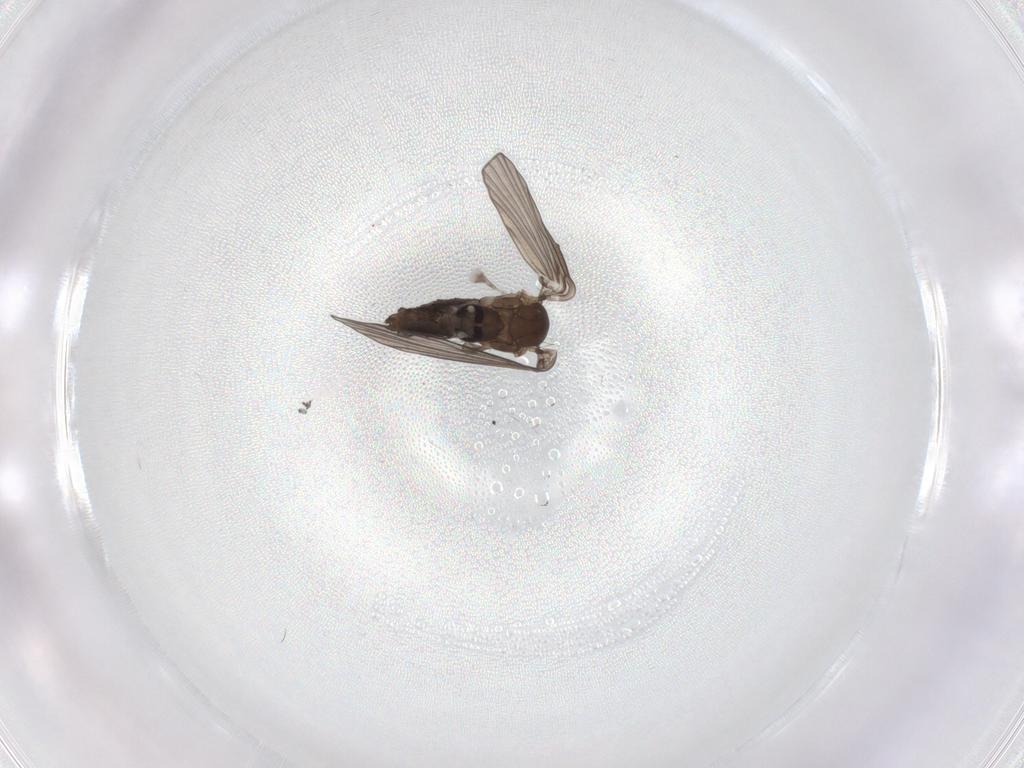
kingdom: Animalia
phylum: Arthropoda
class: Insecta
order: Diptera
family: Psychodidae
